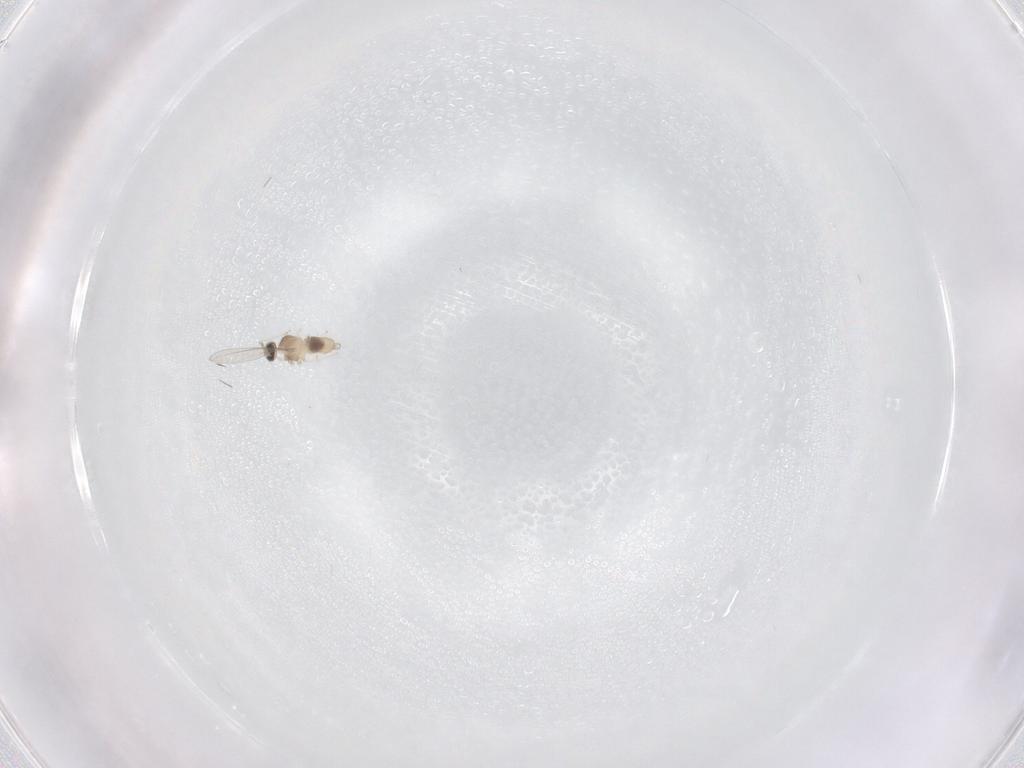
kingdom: Animalia
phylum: Arthropoda
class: Insecta
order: Diptera
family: Cecidomyiidae
